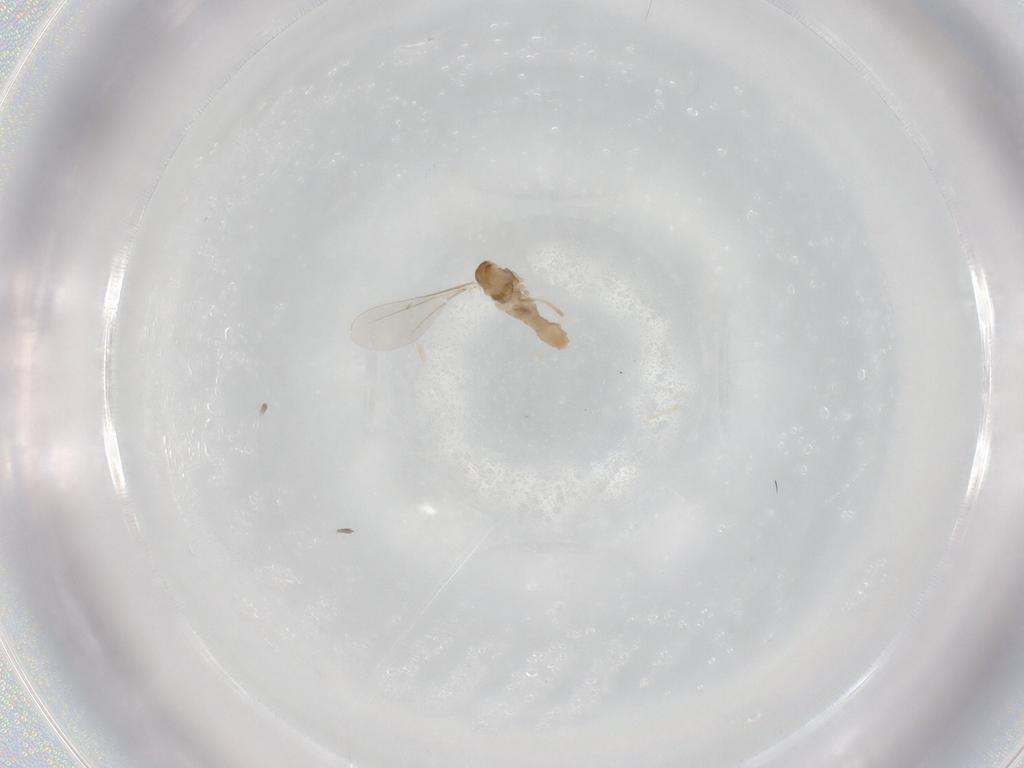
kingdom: Animalia
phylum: Arthropoda
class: Insecta
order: Diptera
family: Cecidomyiidae
